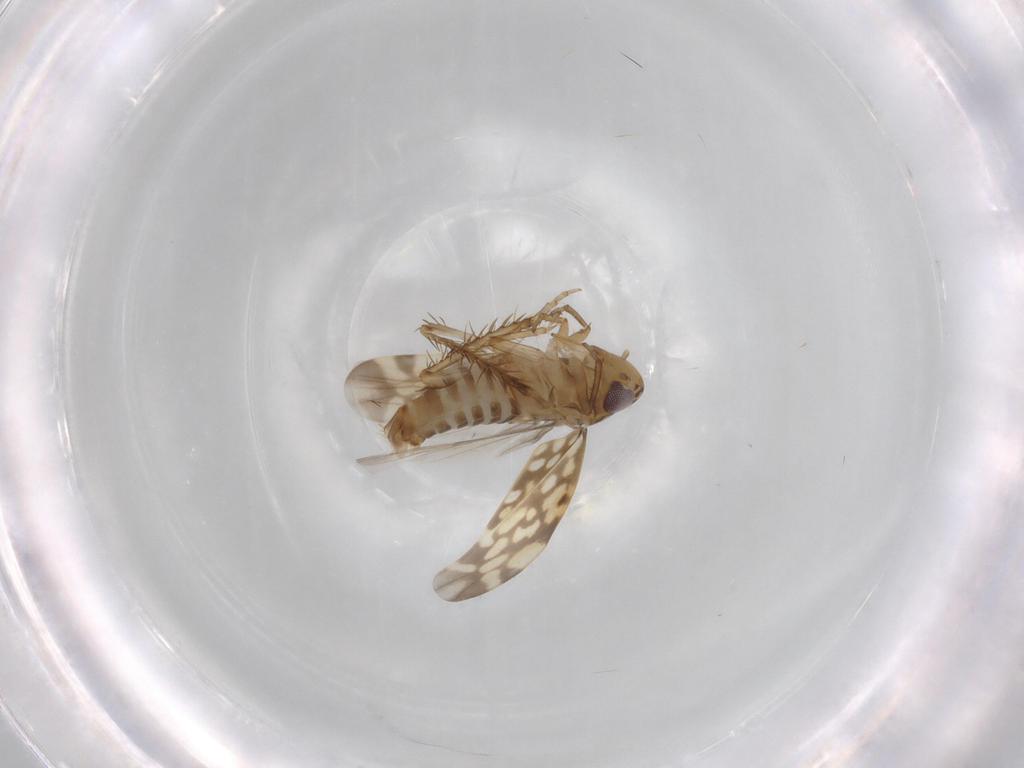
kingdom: Animalia
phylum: Arthropoda
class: Insecta
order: Hemiptera
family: Cicadellidae
